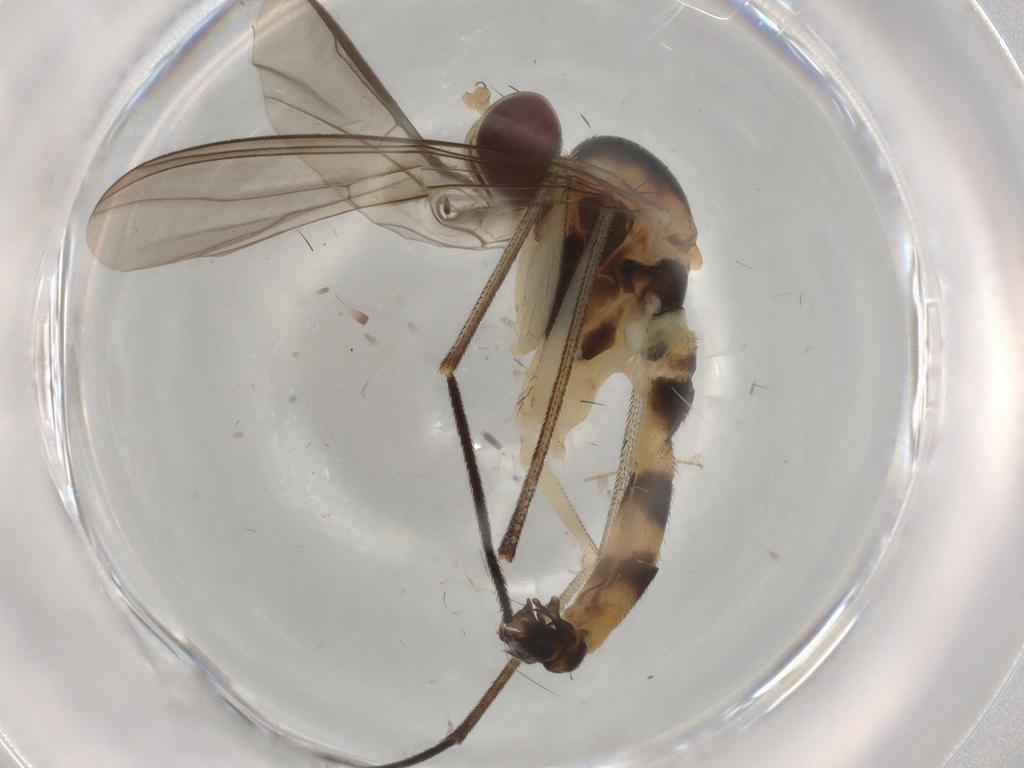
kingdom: Animalia
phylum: Arthropoda
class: Insecta
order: Diptera
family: Chironomidae
